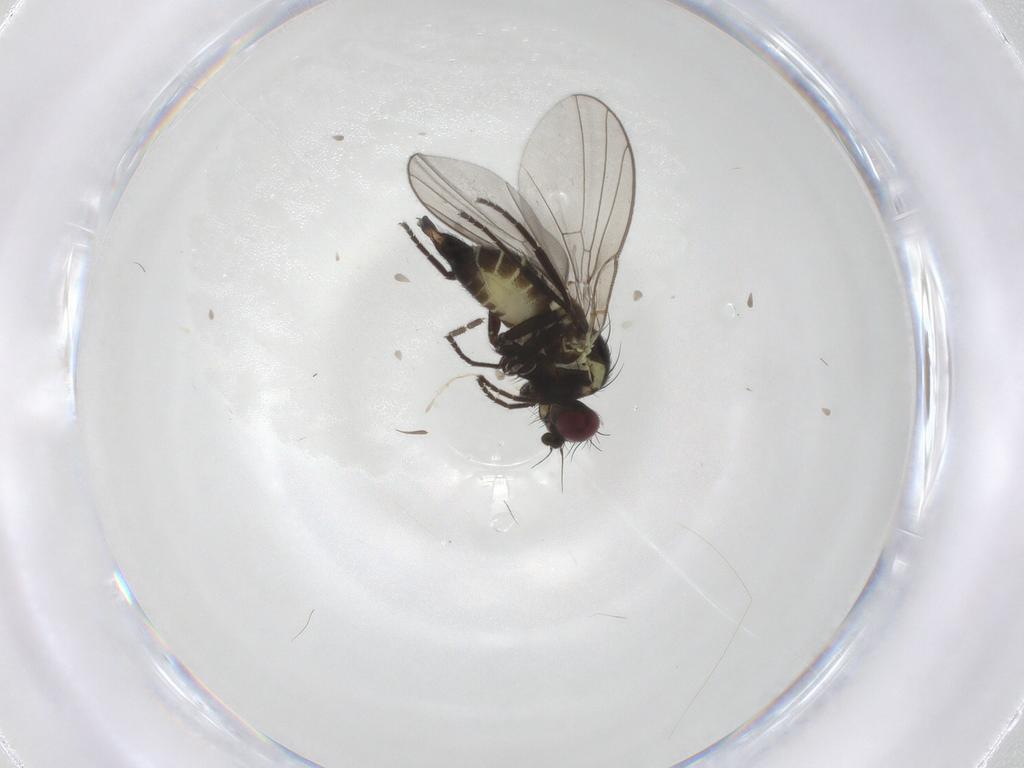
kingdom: Animalia
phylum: Arthropoda
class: Insecta
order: Diptera
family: Agromyzidae
